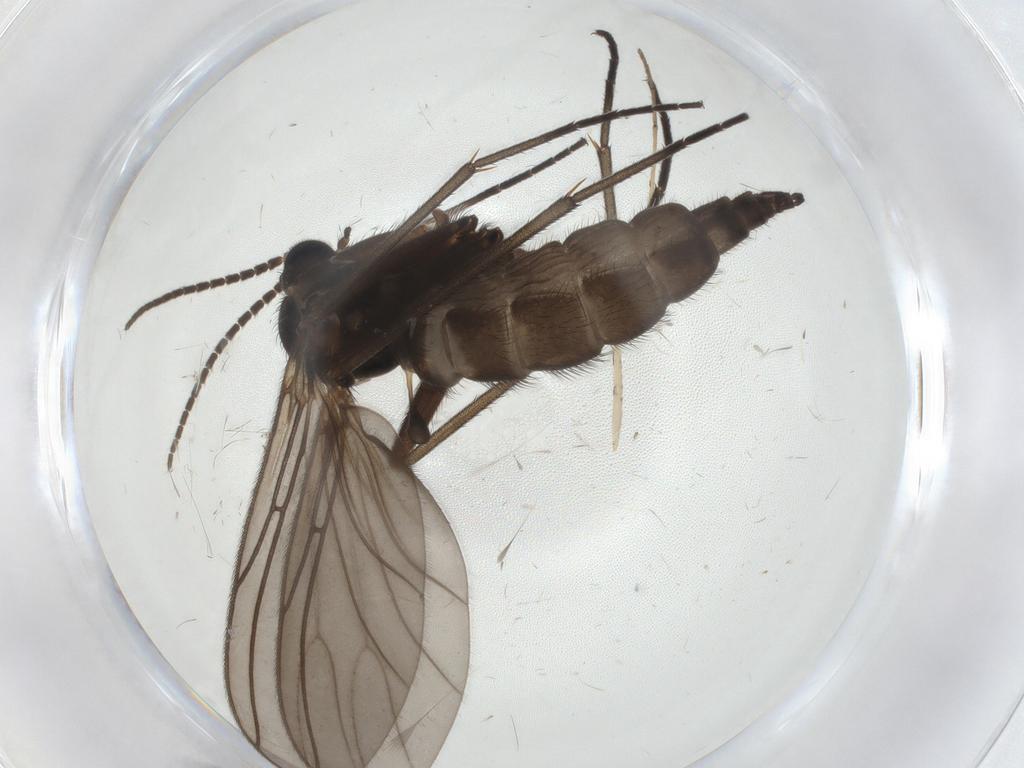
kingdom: Animalia
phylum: Arthropoda
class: Insecta
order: Diptera
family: Sciaridae
